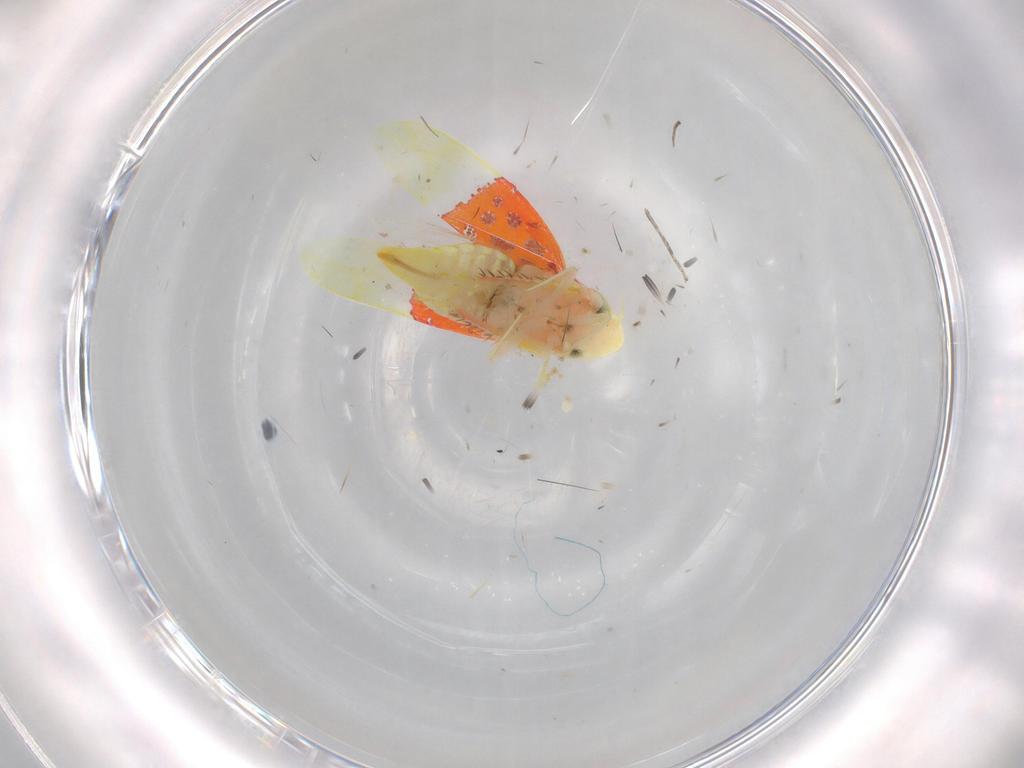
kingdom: Animalia
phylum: Arthropoda
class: Insecta
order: Hemiptera
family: Cicadellidae
